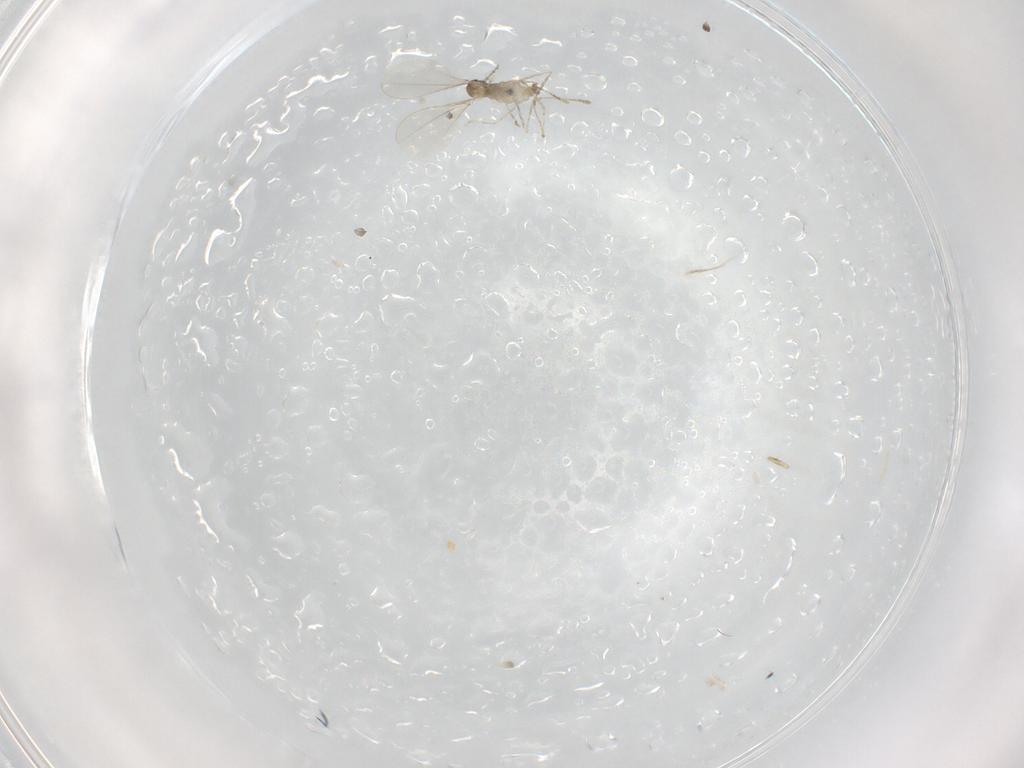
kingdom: Animalia
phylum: Arthropoda
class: Insecta
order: Diptera
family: Cecidomyiidae
